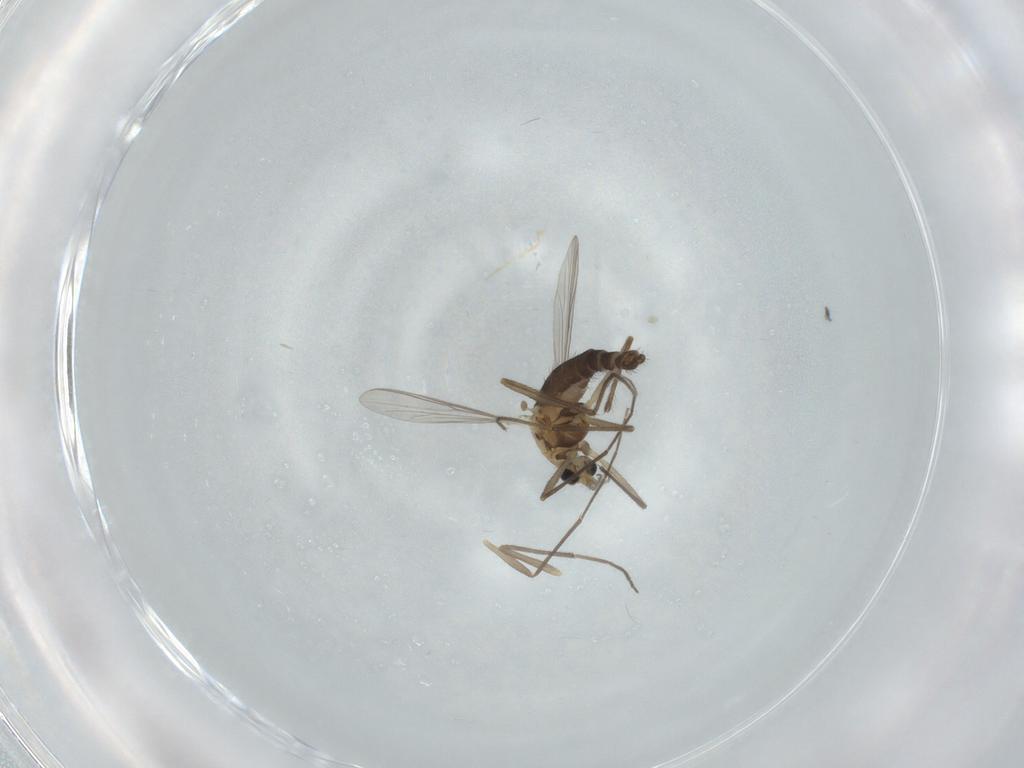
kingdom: Animalia
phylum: Arthropoda
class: Insecta
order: Diptera
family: Chironomidae
